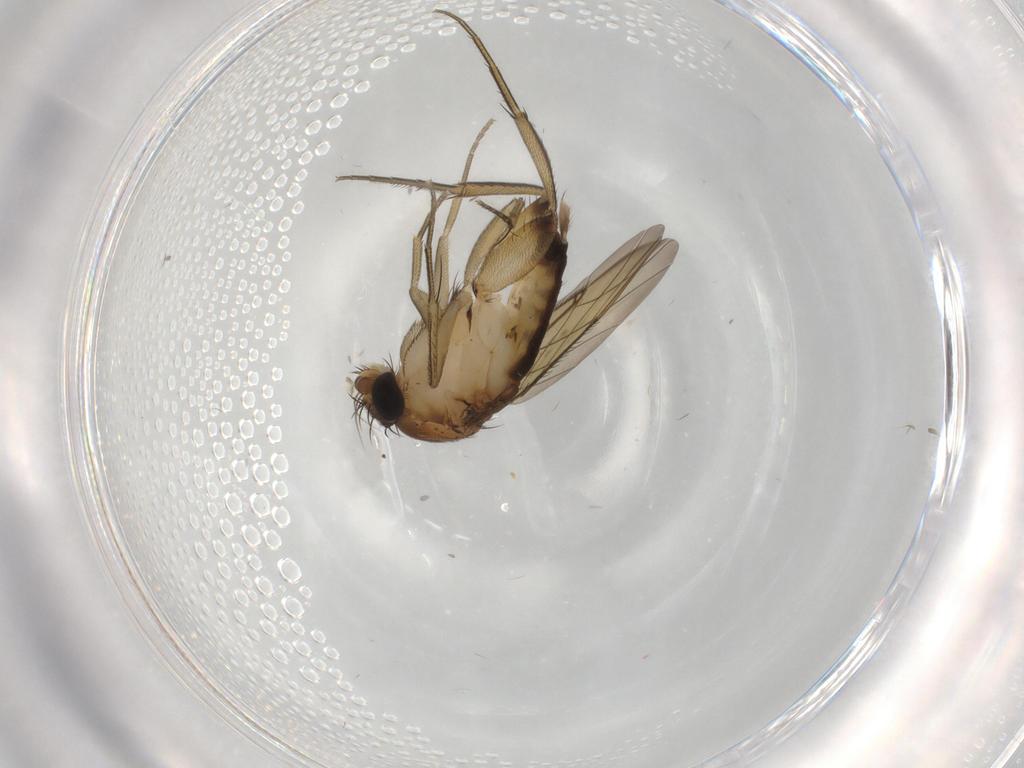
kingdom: Animalia
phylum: Arthropoda
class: Insecta
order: Diptera
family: Phoridae
